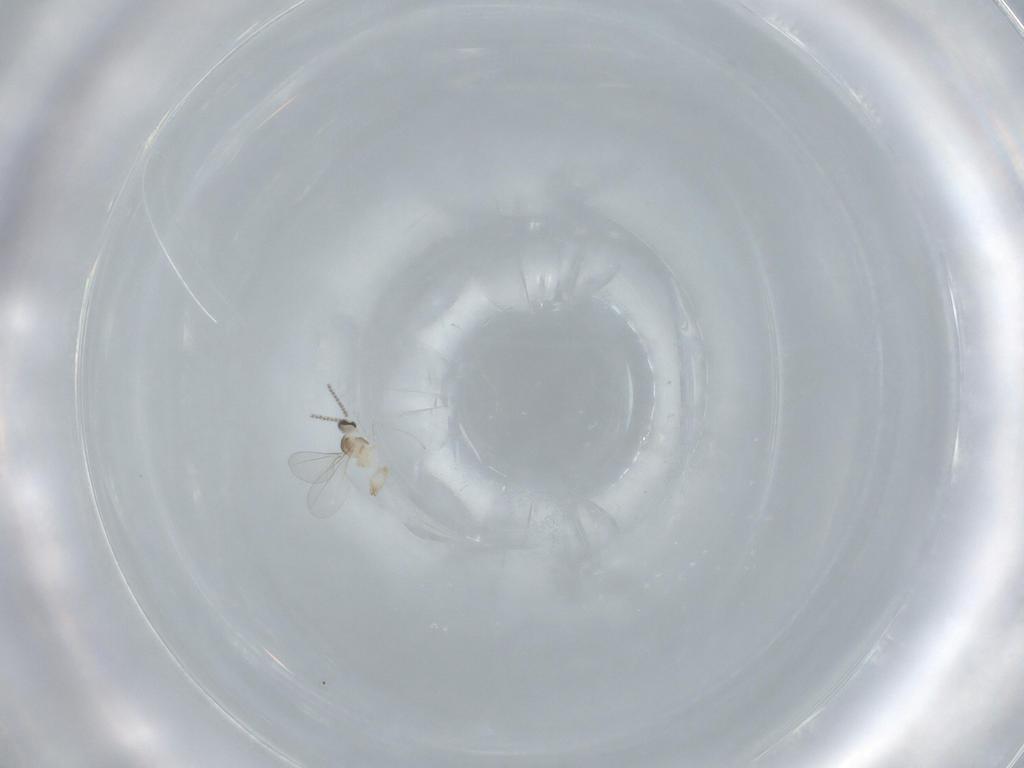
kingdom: Animalia
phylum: Arthropoda
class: Insecta
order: Diptera
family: Cecidomyiidae
